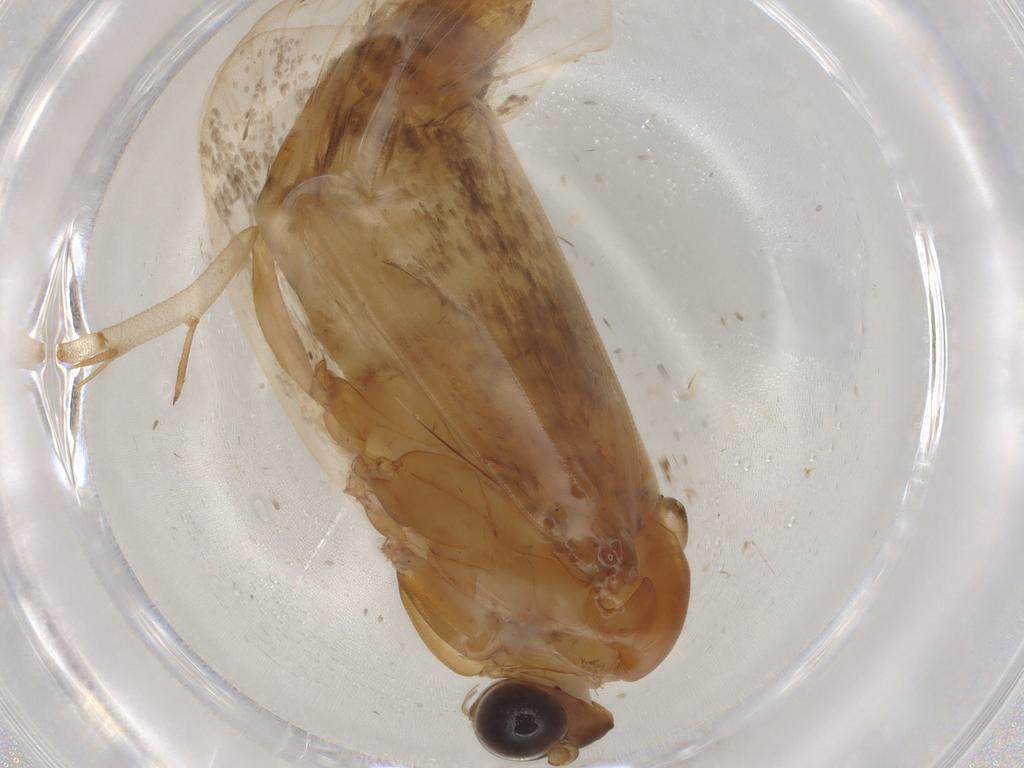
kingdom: Animalia
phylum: Arthropoda
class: Insecta
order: Lepidoptera
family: Eriocottidae
